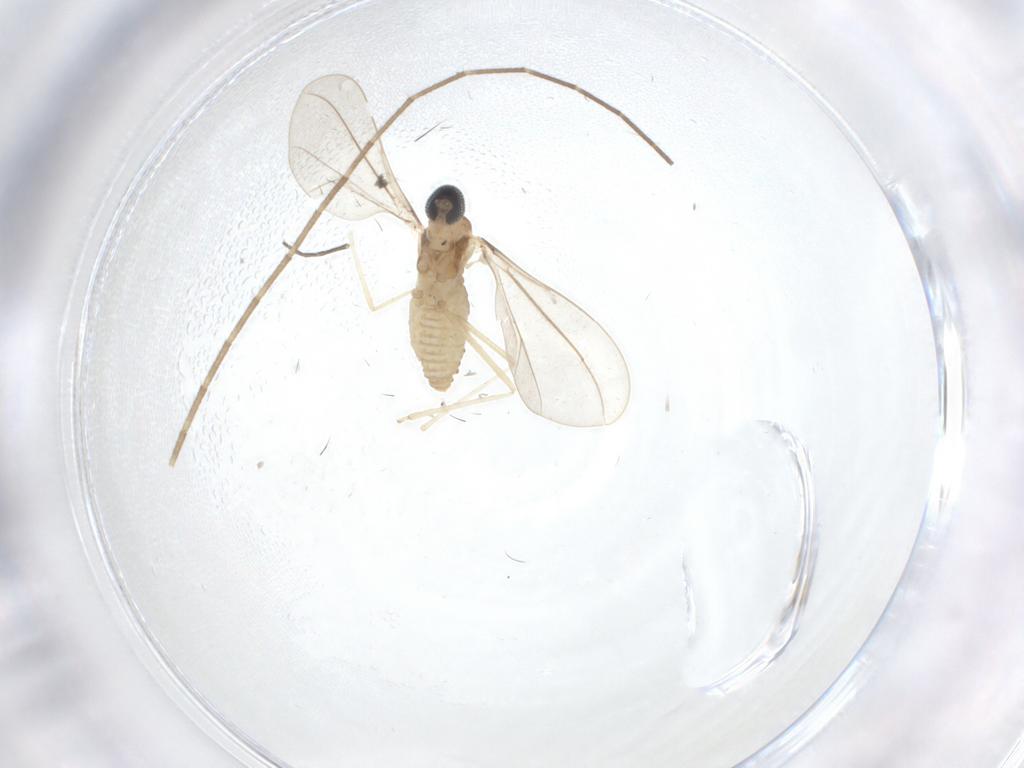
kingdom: Animalia
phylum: Arthropoda
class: Insecta
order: Diptera
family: Cecidomyiidae
